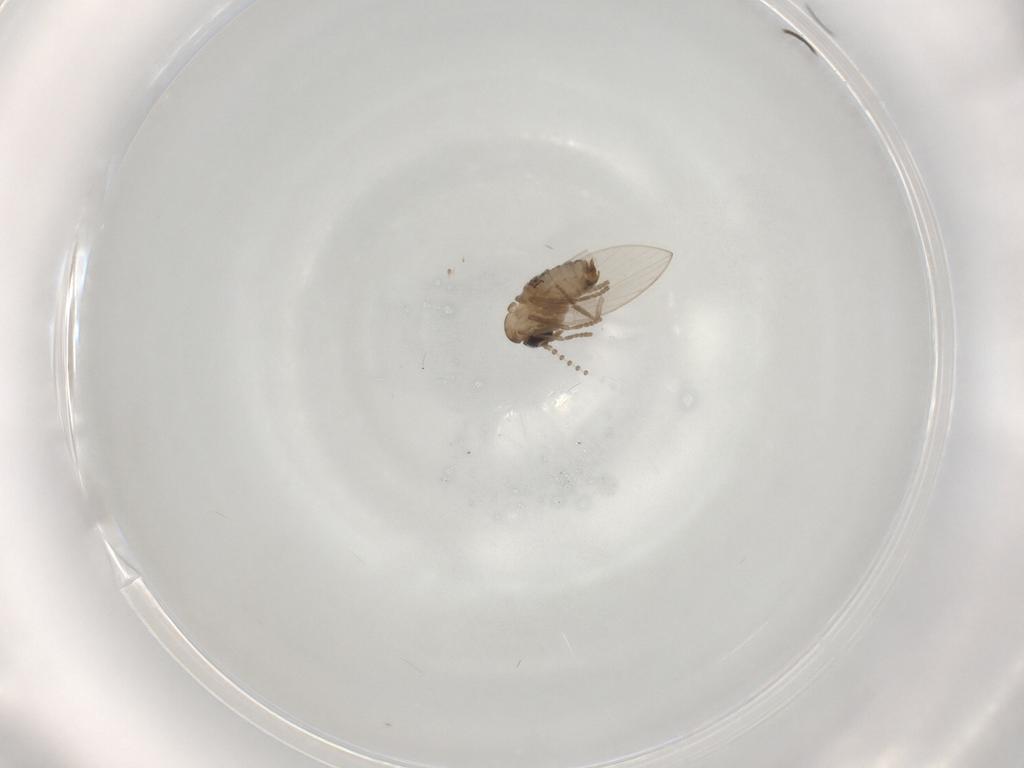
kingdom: Animalia
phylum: Arthropoda
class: Insecta
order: Diptera
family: Psychodidae
